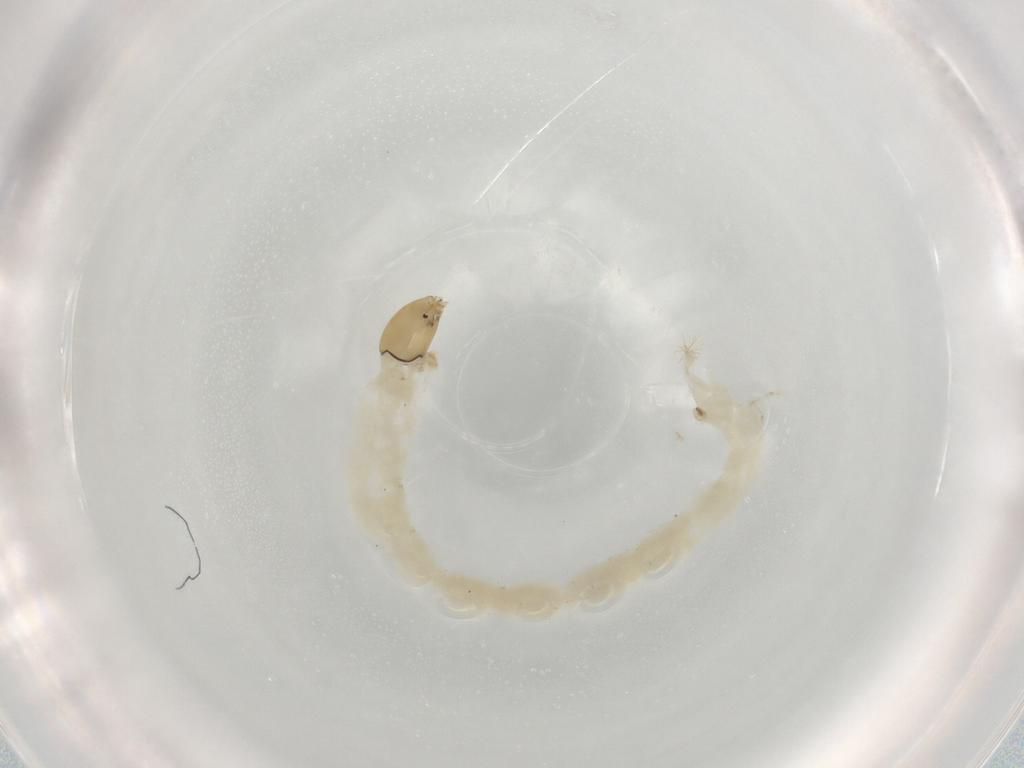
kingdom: Animalia
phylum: Arthropoda
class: Insecta
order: Diptera
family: Chironomidae
